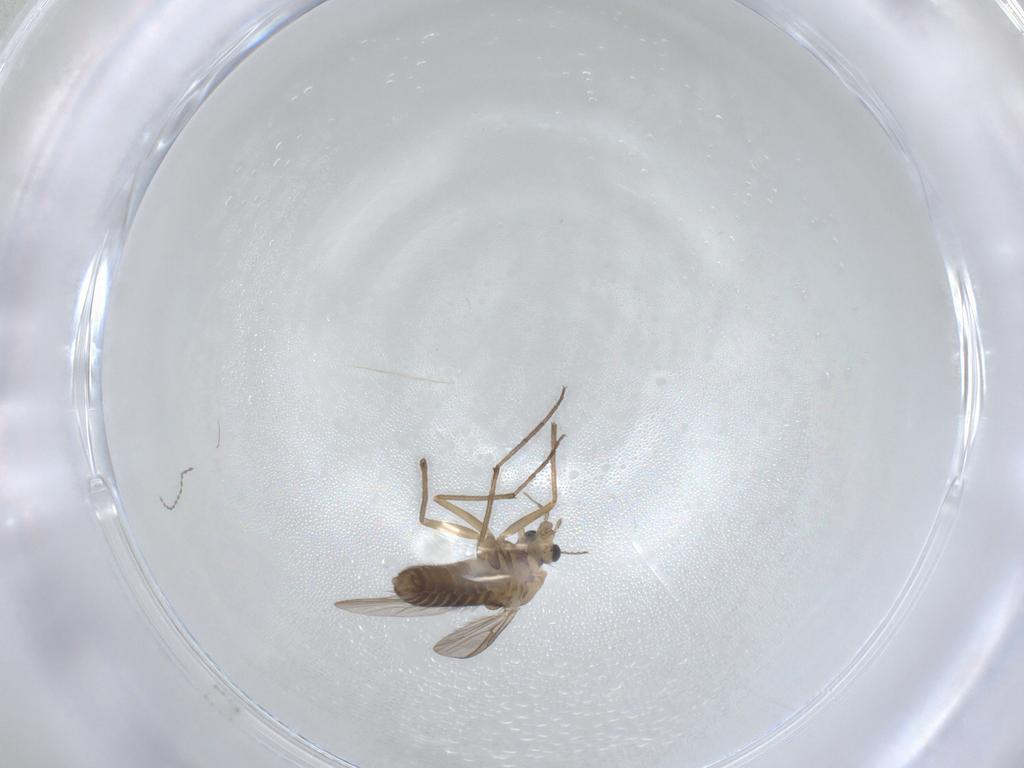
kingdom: Animalia
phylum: Arthropoda
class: Insecta
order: Diptera
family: Chironomidae
